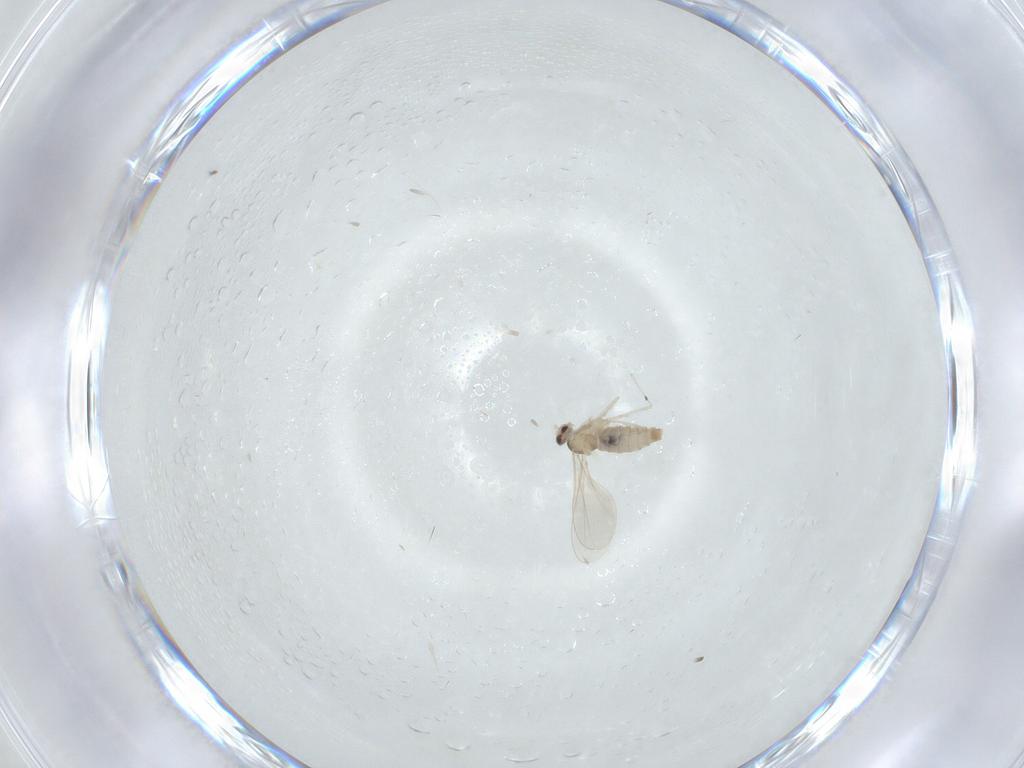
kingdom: Animalia
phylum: Arthropoda
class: Insecta
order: Diptera
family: Cecidomyiidae
